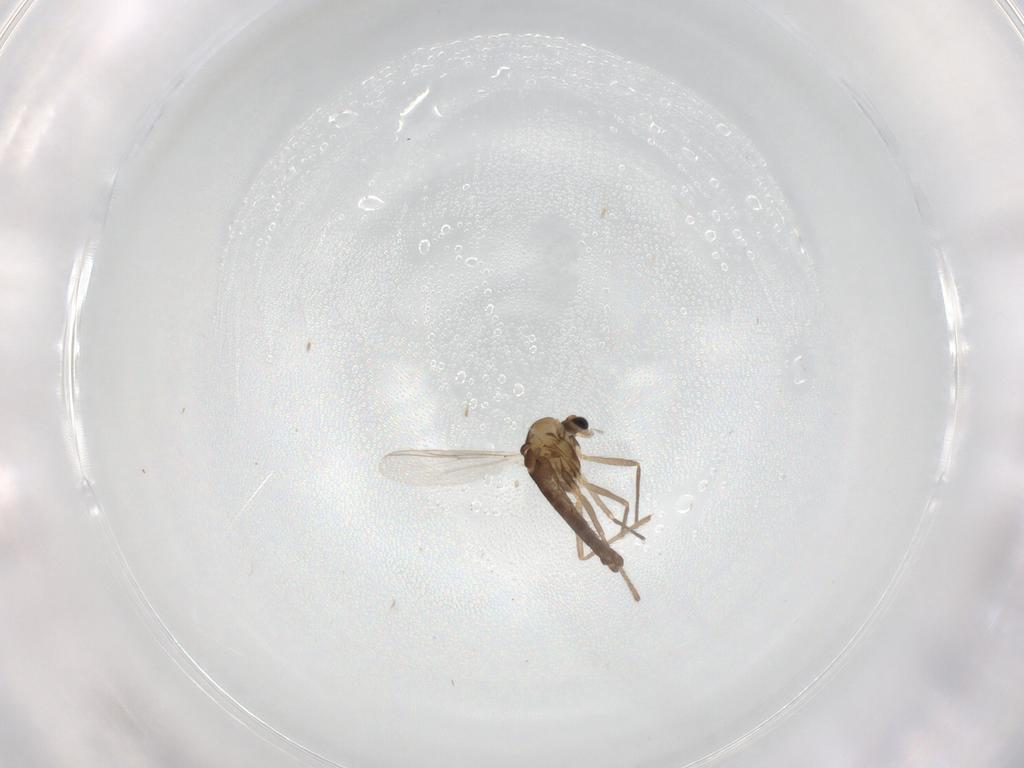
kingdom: Animalia
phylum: Arthropoda
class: Insecta
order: Diptera
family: Chironomidae
